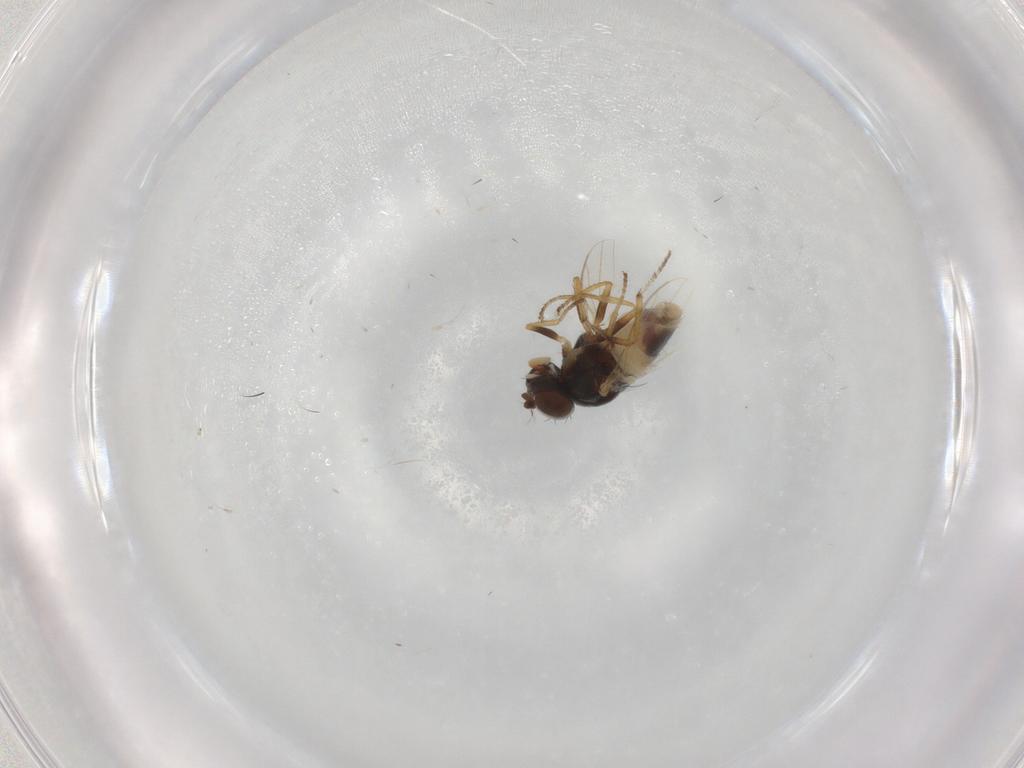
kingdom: Animalia
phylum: Arthropoda
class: Insecta
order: Diptera
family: Ephydridae
